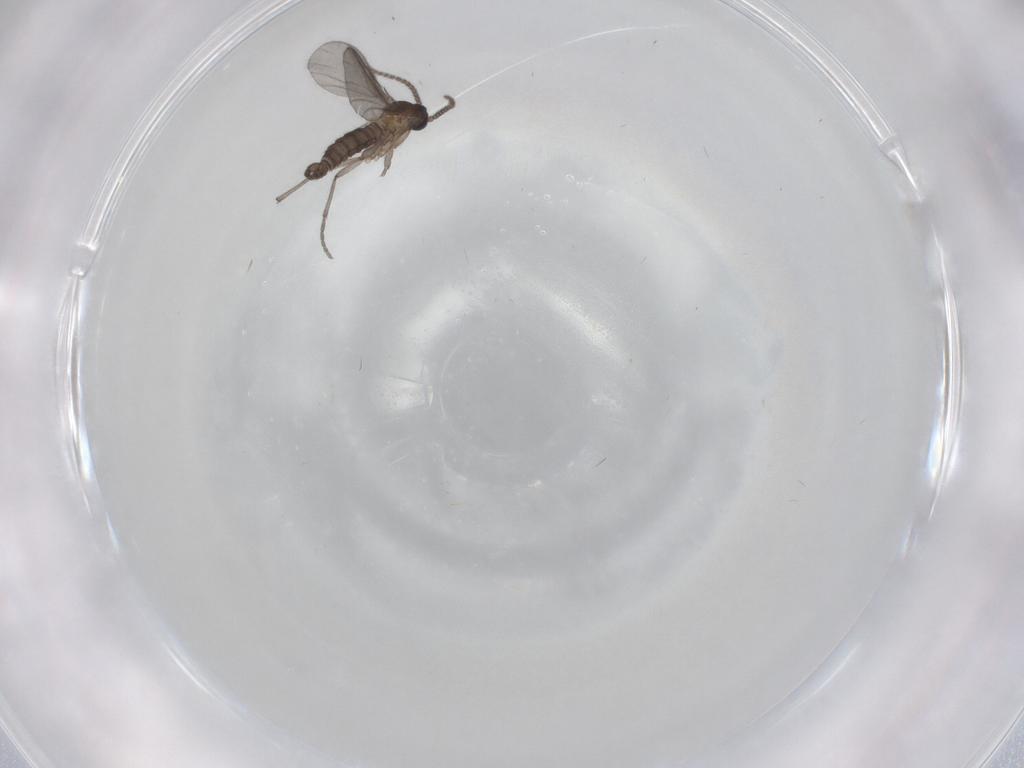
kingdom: Animalia
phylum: Arthropoda
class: Insecta
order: Diptera
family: Sciaridae
